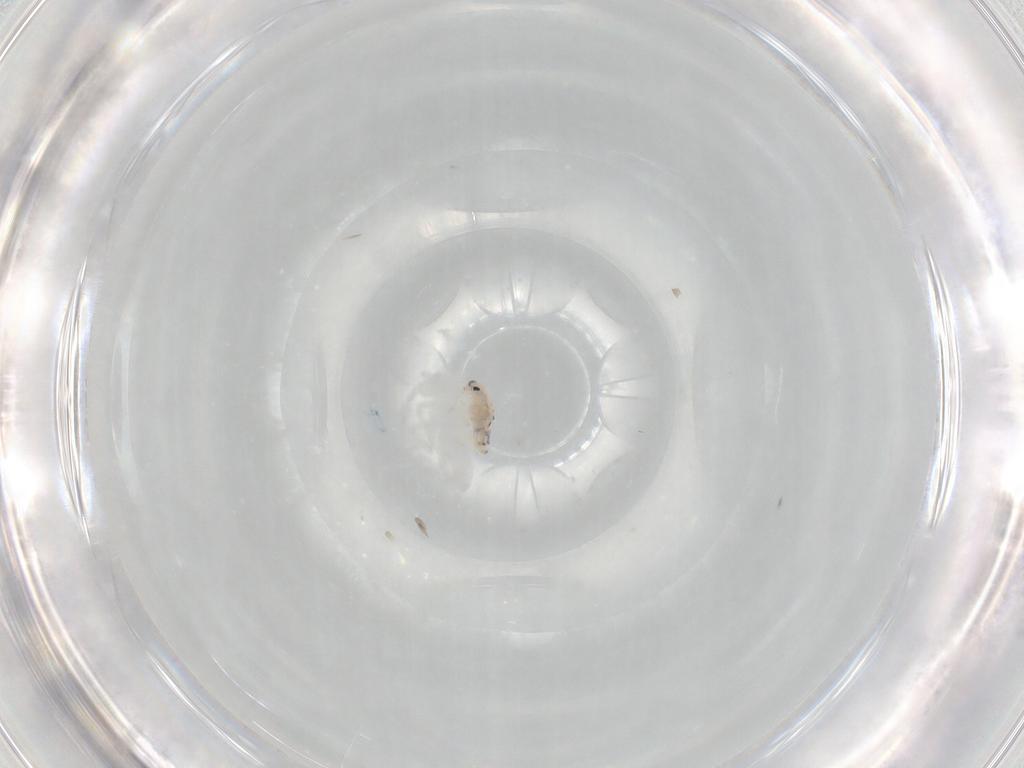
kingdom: Animalia
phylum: Arthropoda
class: Collembola
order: Entomobryomorpha
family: Entomobryidae
